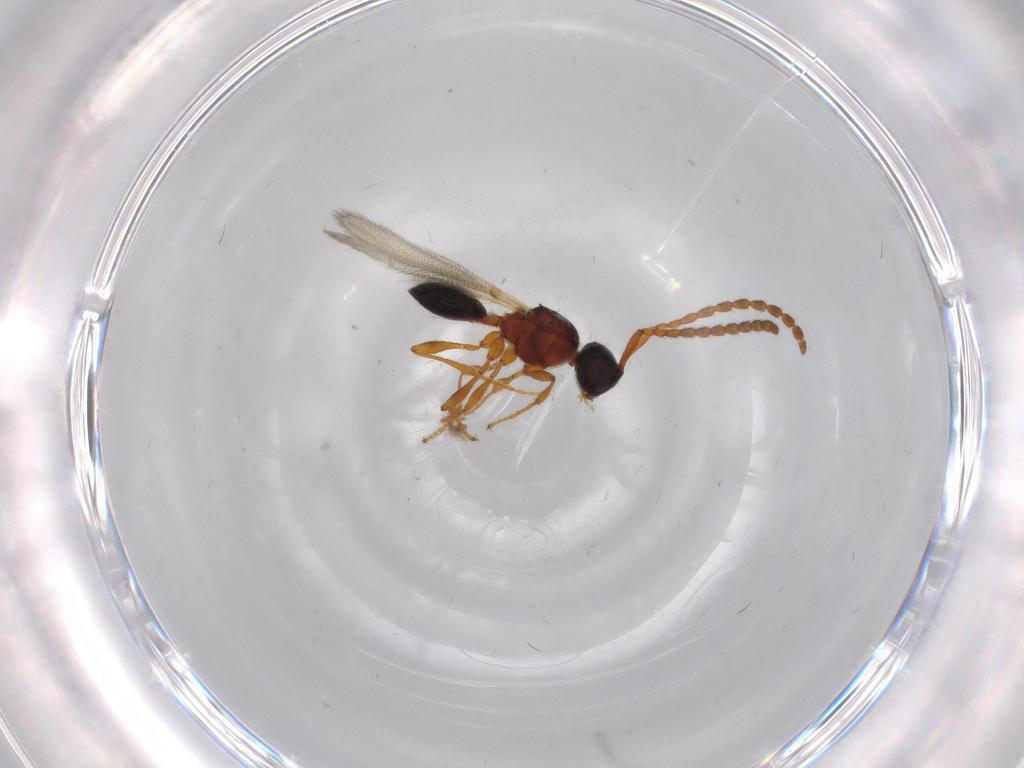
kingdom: Animalia
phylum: Arthropoda
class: Insecta
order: Hymenoptera
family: Diapriidae
